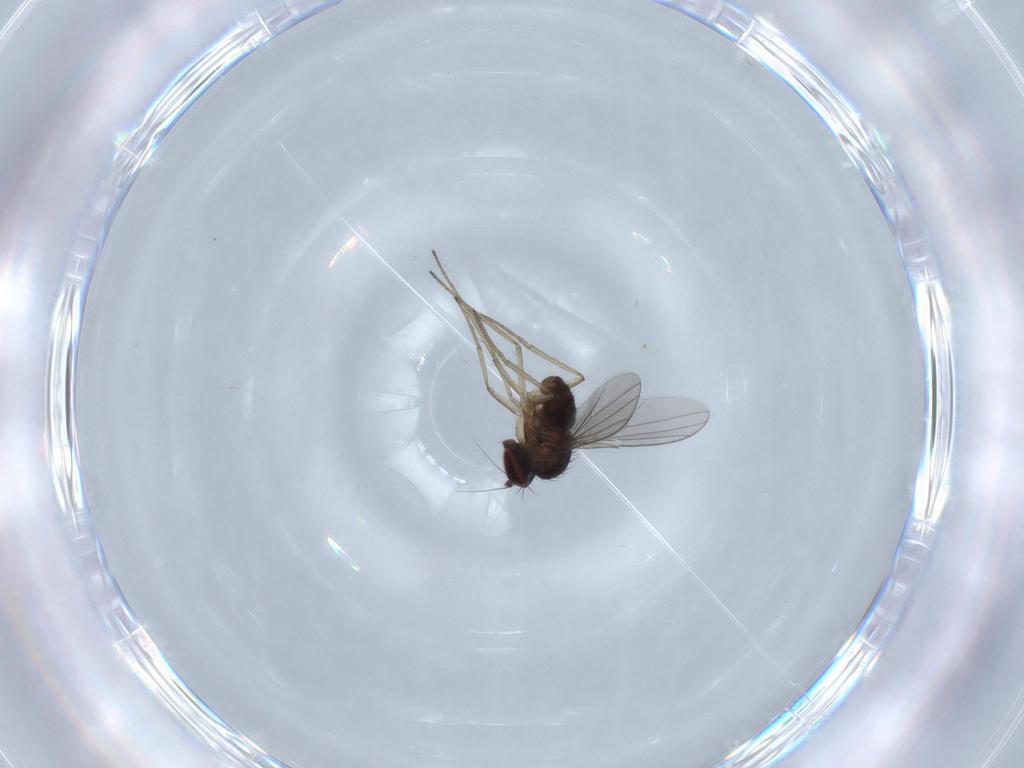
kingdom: Animalia
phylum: Arthropoda
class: Insecta
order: Diptera
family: Dolichopodidae
